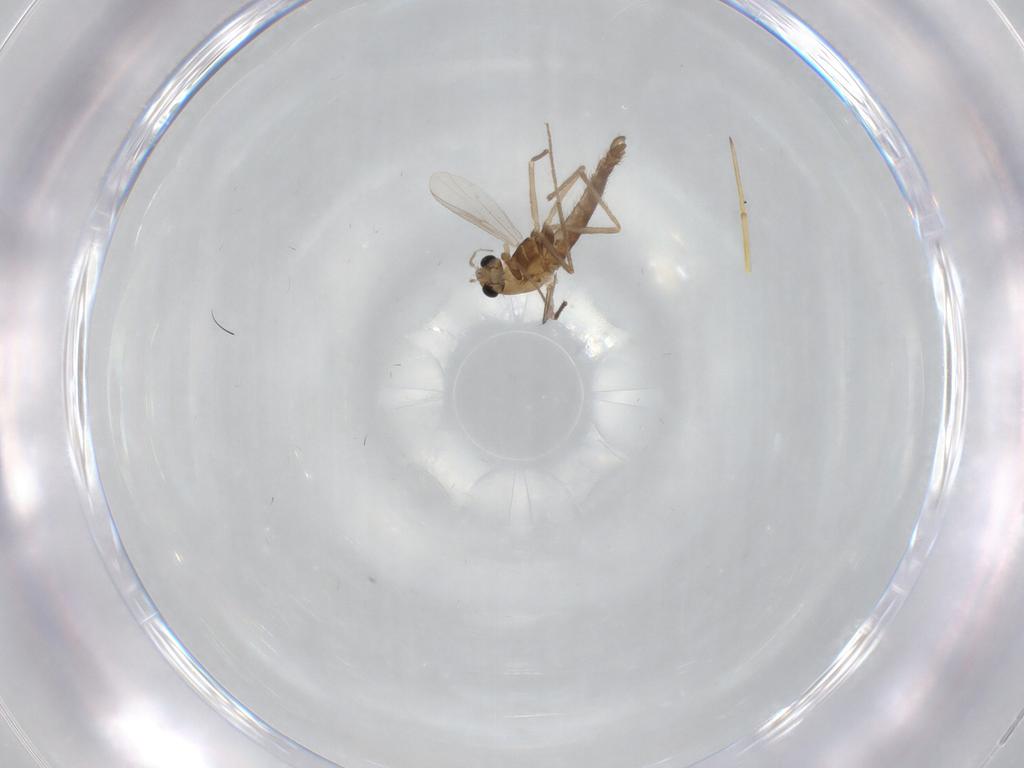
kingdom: Animalia
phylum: Arthropoda
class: Insecta
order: Diptera
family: Chironomidae
